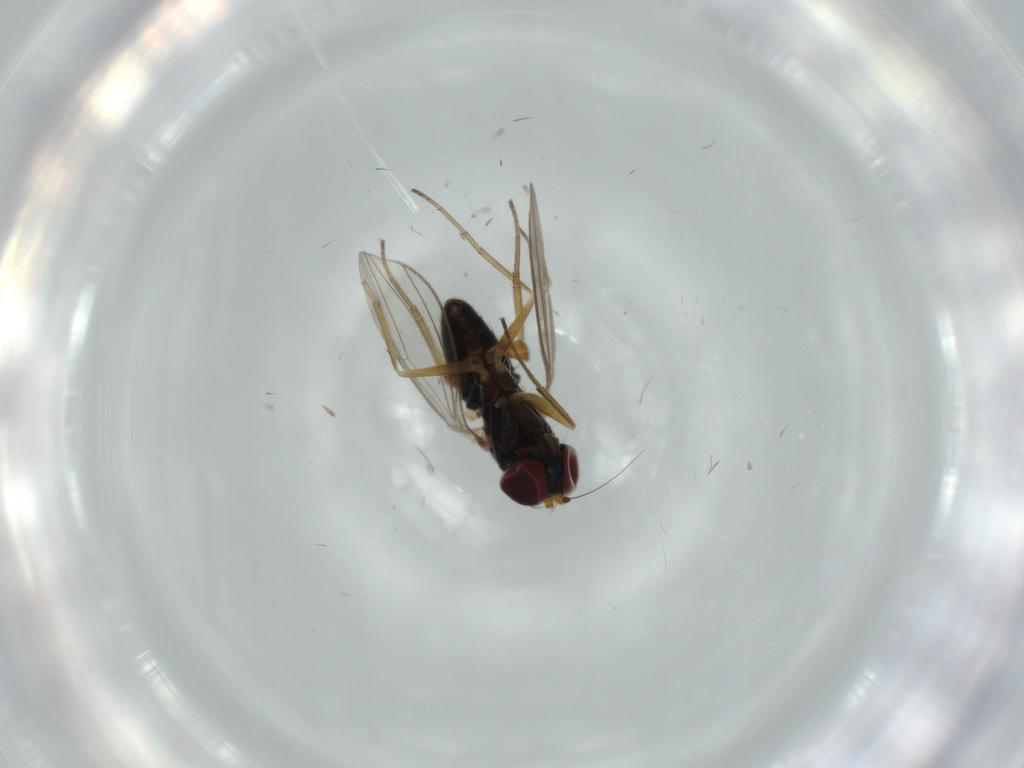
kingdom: Animalia
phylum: Arthropoda
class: Insecta
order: Diptera
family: Dolichopodidae
